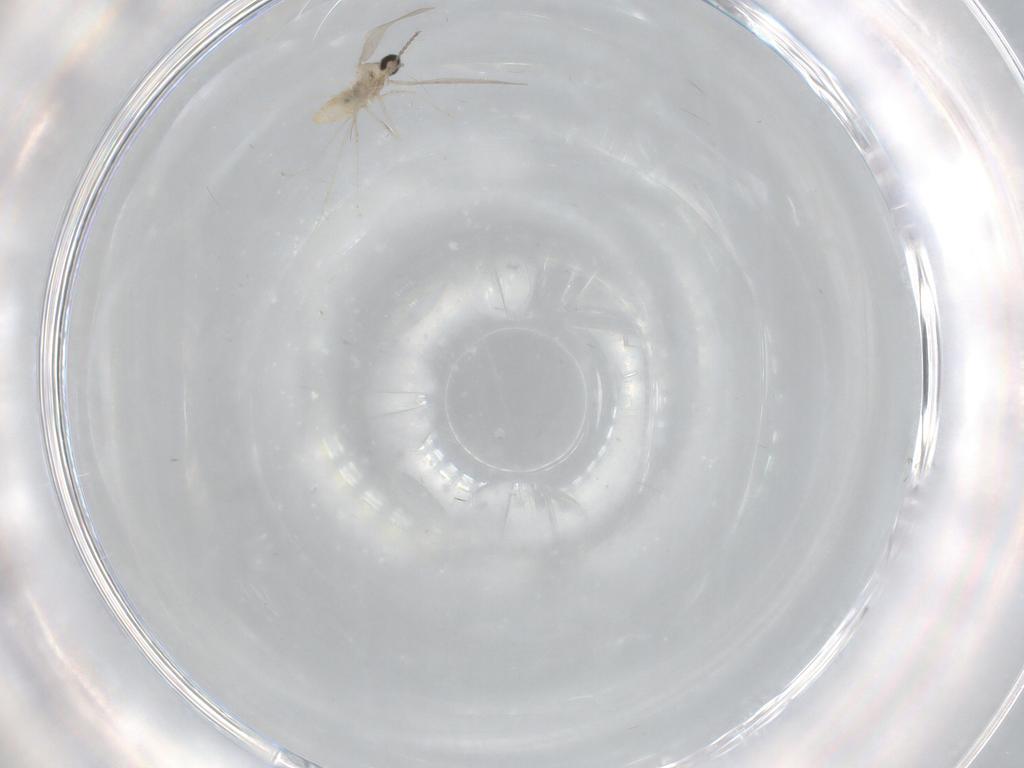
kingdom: Animalia
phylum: Arthropoda
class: Insecta
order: Diptera
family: Cecidomyiidae
